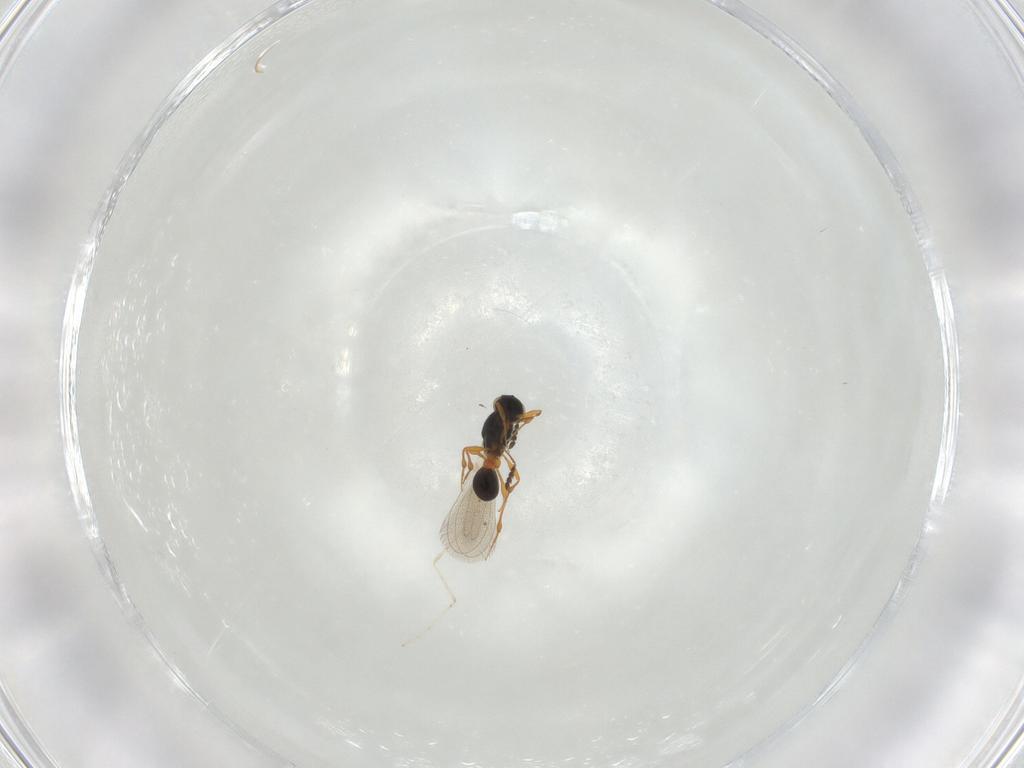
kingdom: Animalia
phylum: Arthropoda
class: Insecta
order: Hymenoptera
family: Platygastridae
